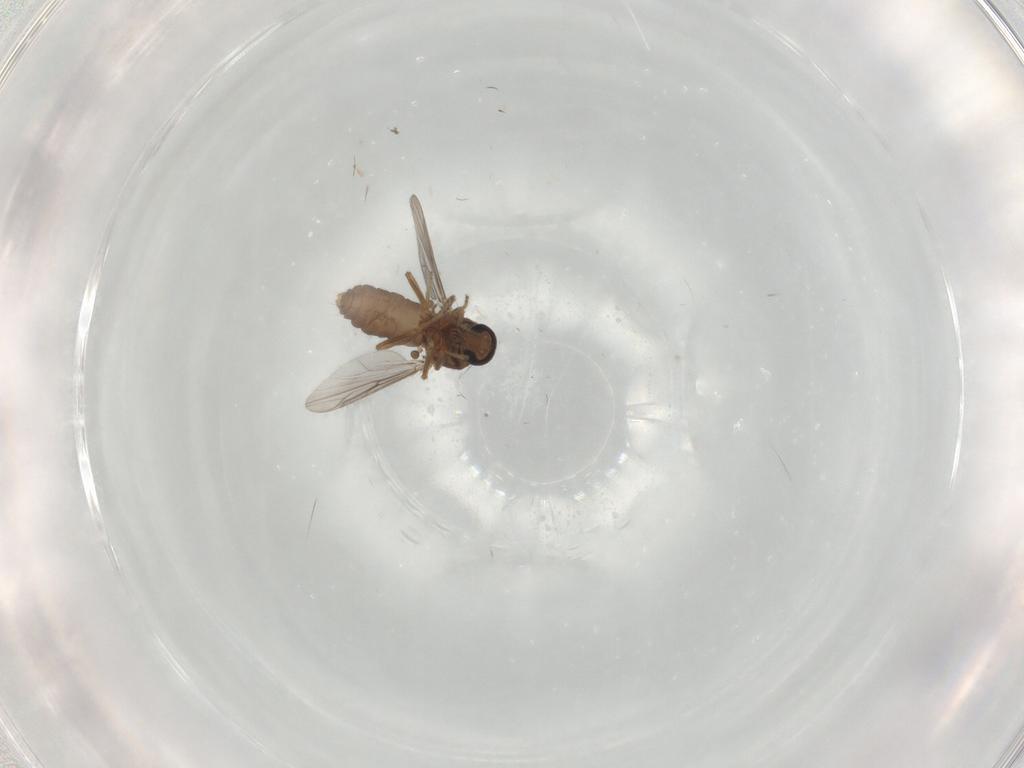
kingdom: Animalia
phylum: Arthropoda
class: Insecta
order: Diptera
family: Ceratopogonidae
